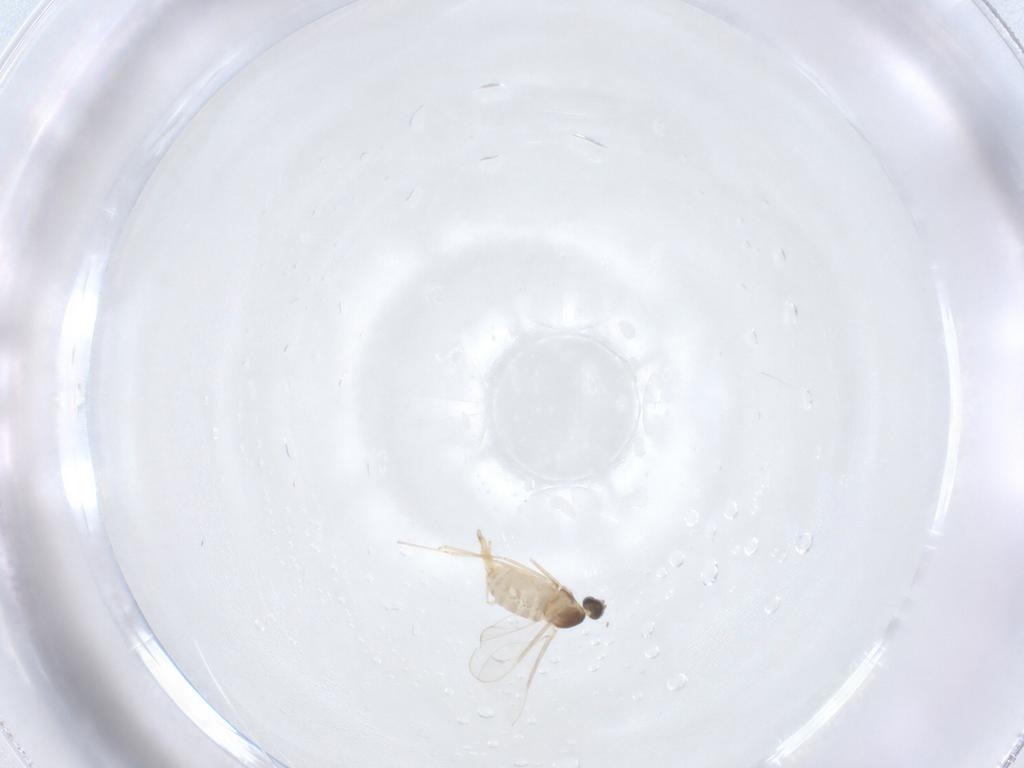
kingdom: Animalia
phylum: Arthropoda
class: Insecta
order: Diptera
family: Cecidomyiidae
